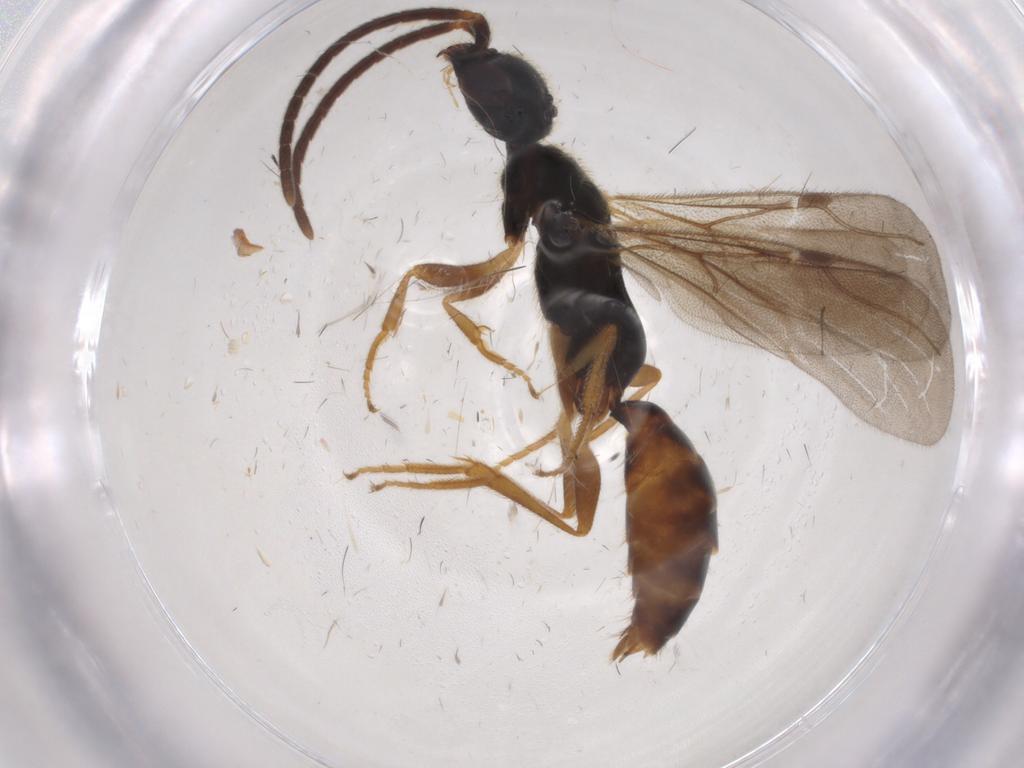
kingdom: Animalia
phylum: Arthropoda
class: Insecta
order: Hymenoptera
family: Bethylidae
